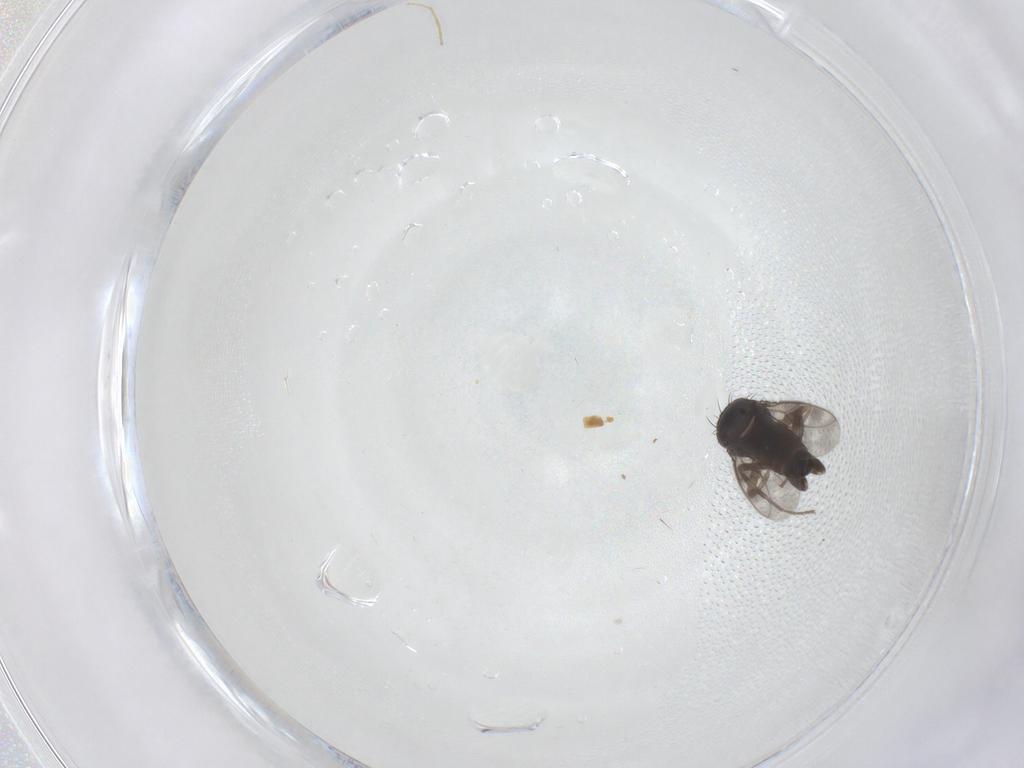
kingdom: Animalia
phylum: Arthropoda
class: Insecta
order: Diptera
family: Sphaeroceridae
